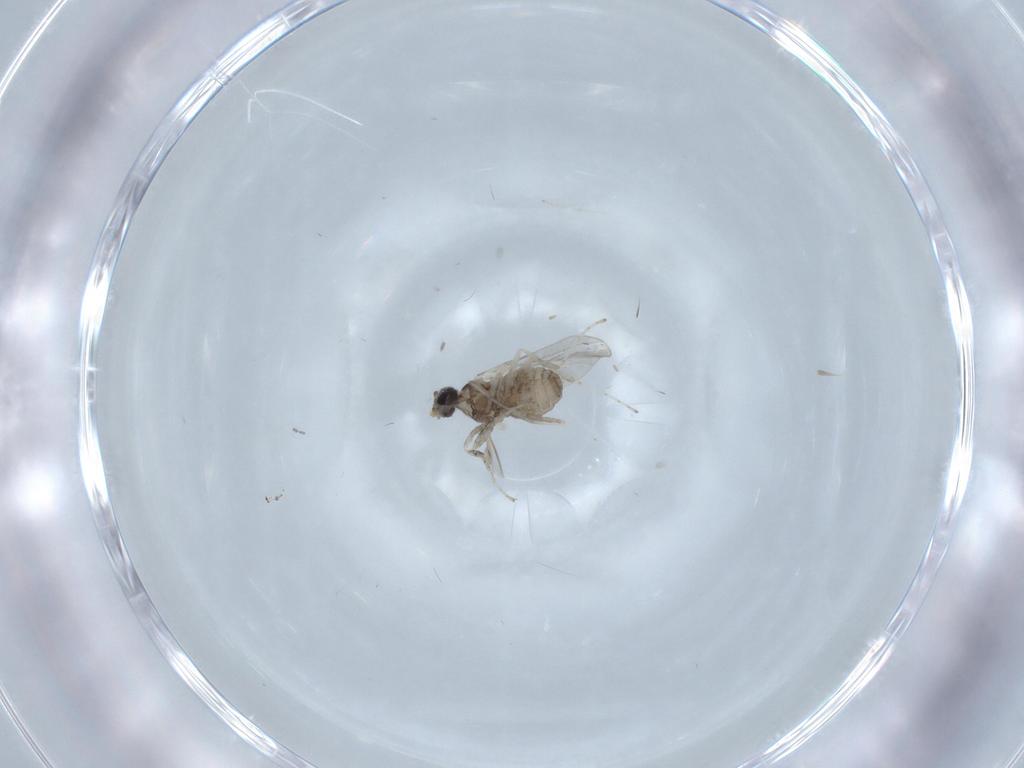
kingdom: Animalia
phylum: Arthropoda
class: Insecta
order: Diptera
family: Cecidomyiidae
